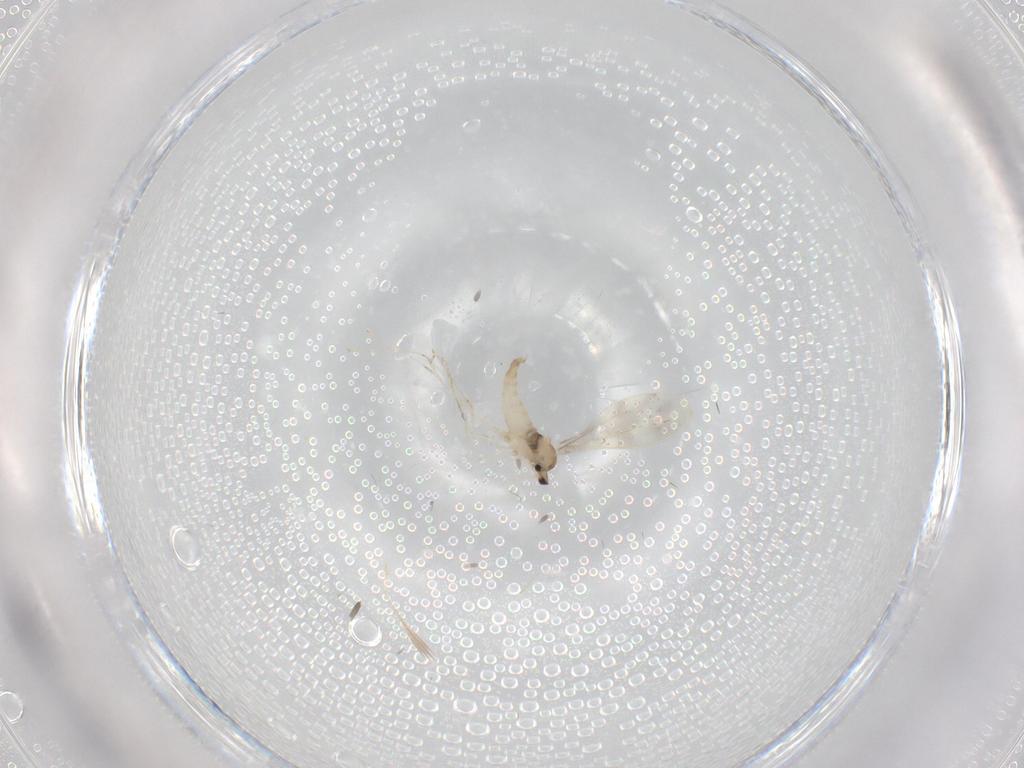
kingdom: Animalia
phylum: Arthropoda
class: Insecta
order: Diptera
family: Cecidomyiidae
